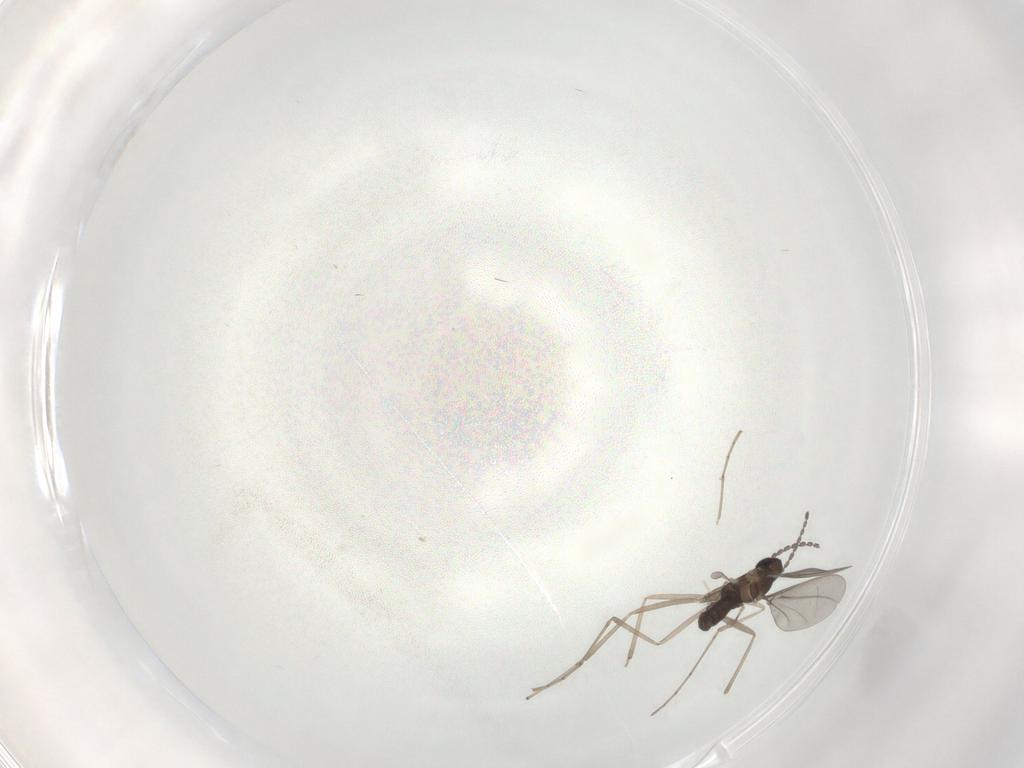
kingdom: Animalia
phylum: Arthropoda
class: Insecta
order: Diptera
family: Cecidomyiidae
